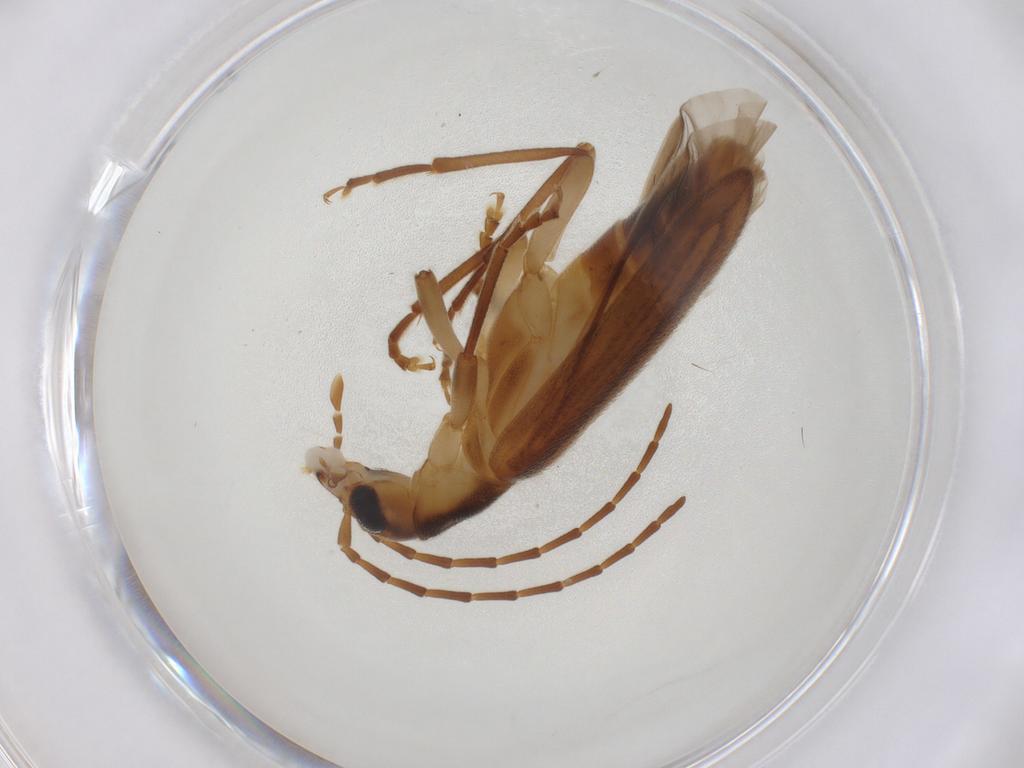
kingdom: Animalia
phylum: Arthropoda
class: Insecta
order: Coleoptera
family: Oedemeridae
